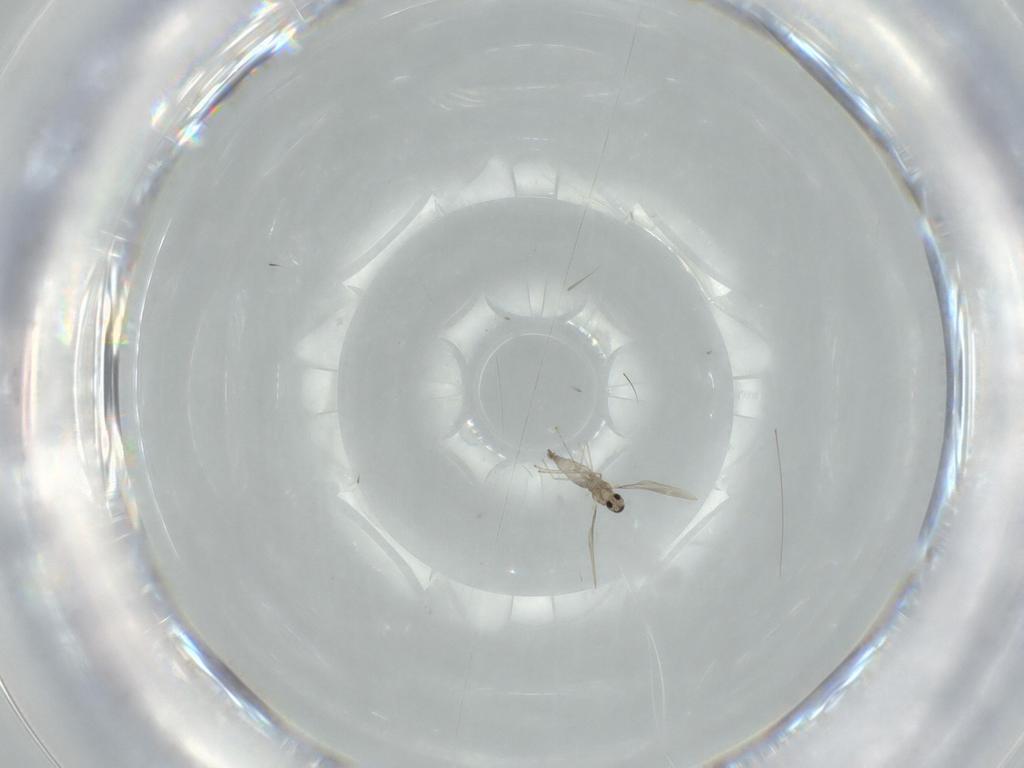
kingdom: Animalia
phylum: Arthropoda
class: Insecta
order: Diptera
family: Cecidomyiidae
